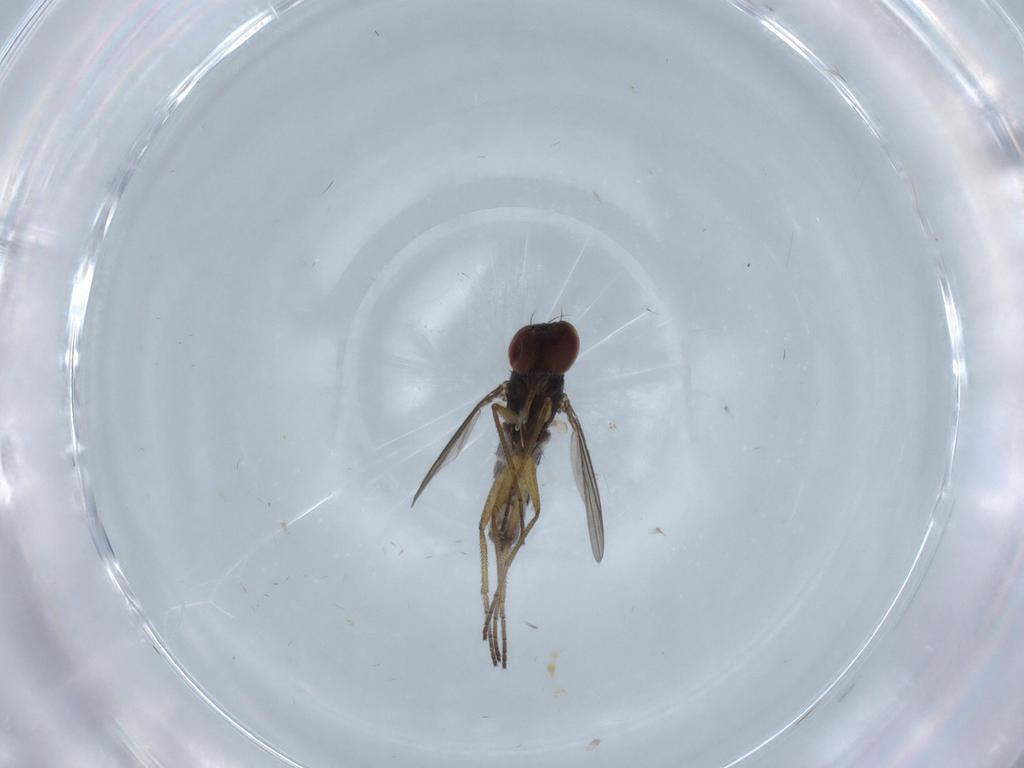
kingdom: Animalia
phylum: Arthropoda
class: Insecta
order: Diptera
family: Dolichopodidae
